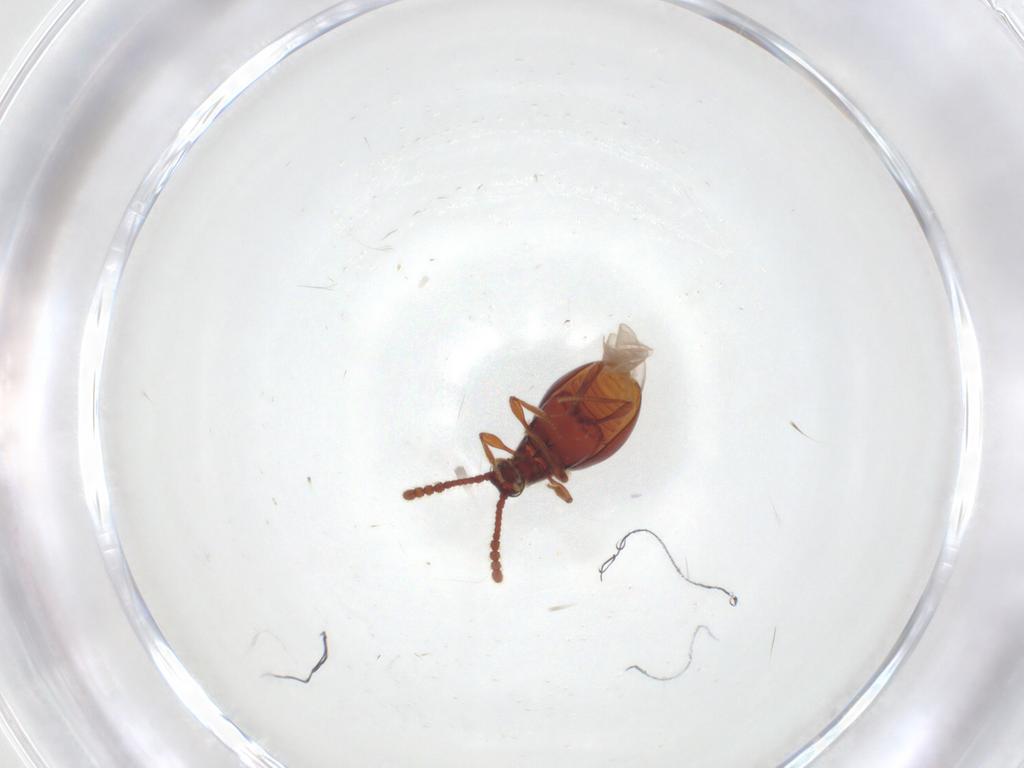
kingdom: Animalia
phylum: Arthropoda
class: Insecta
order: Coleoptera
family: Staphylinidae
